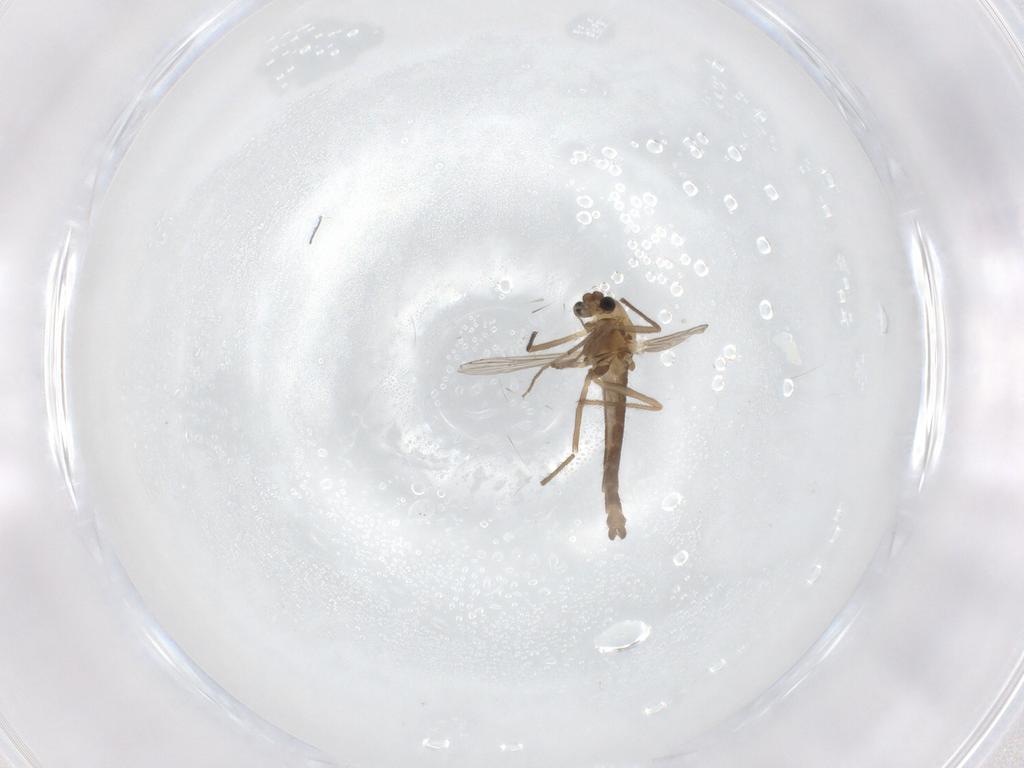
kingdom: Animalia
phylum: Arthropoda
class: Insecta
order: Diptera
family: Chironomidae
